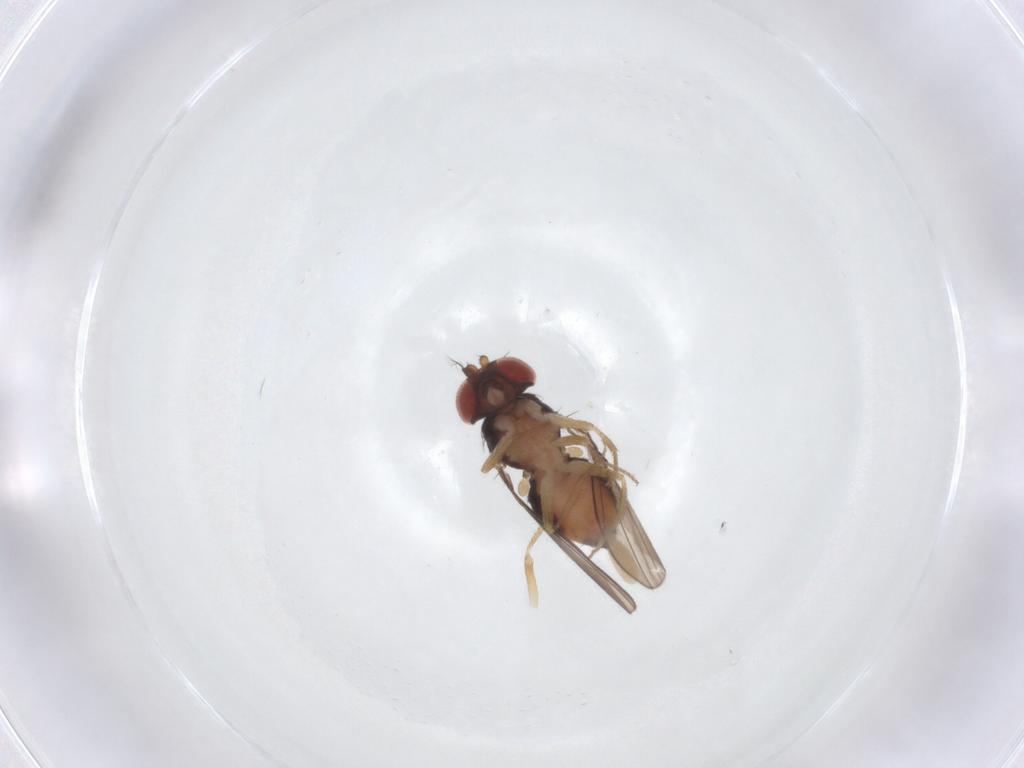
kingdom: Animalia
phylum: Arthropoda
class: Insecta
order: Diptera
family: Drosophilidae
